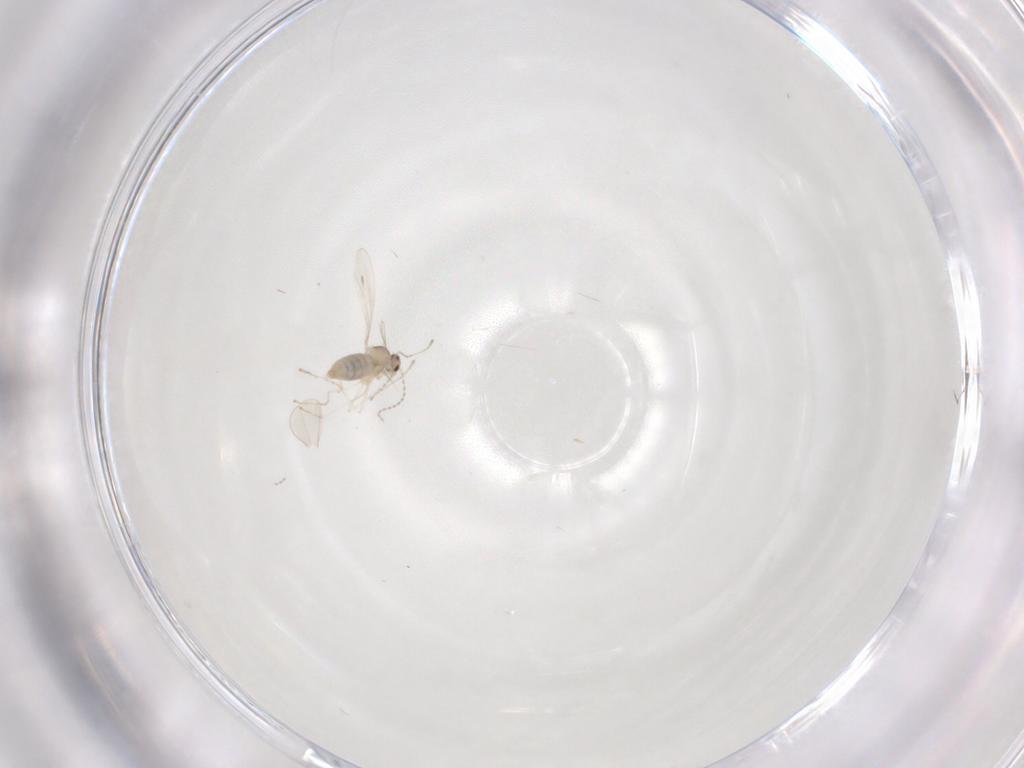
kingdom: Animalia
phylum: Arthropoda
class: Insecta
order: Diptera
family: Cecidomyiidae
